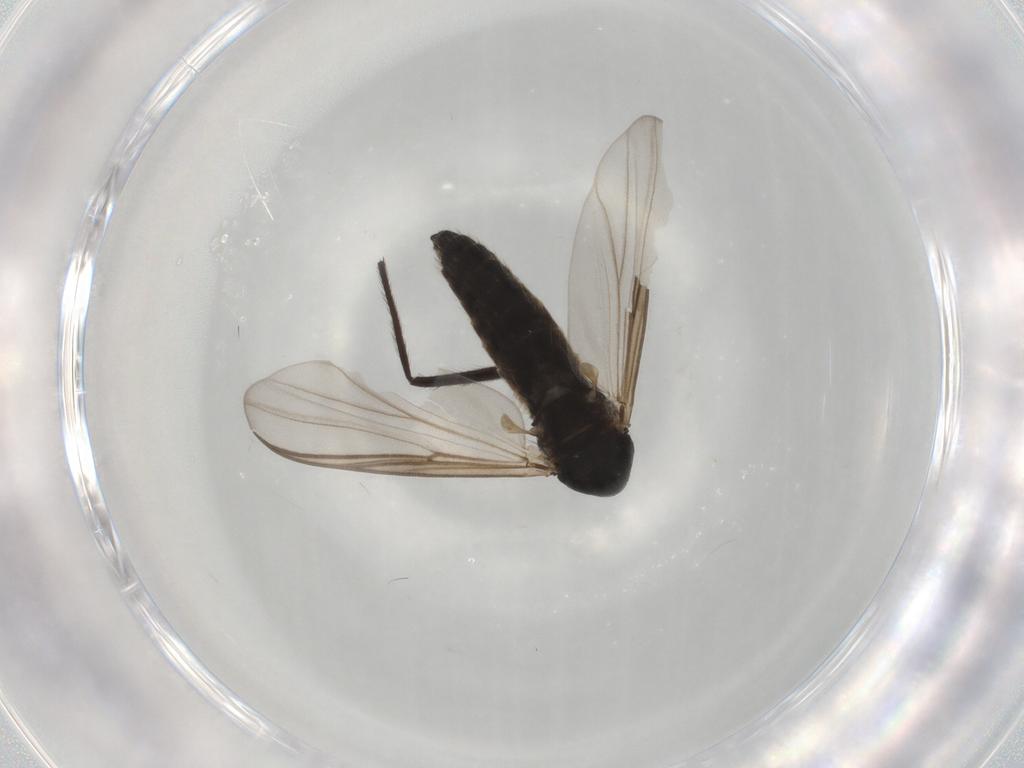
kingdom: Animalia
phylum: Arthropoda
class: Insecta
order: Diptera
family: Chironomidae
